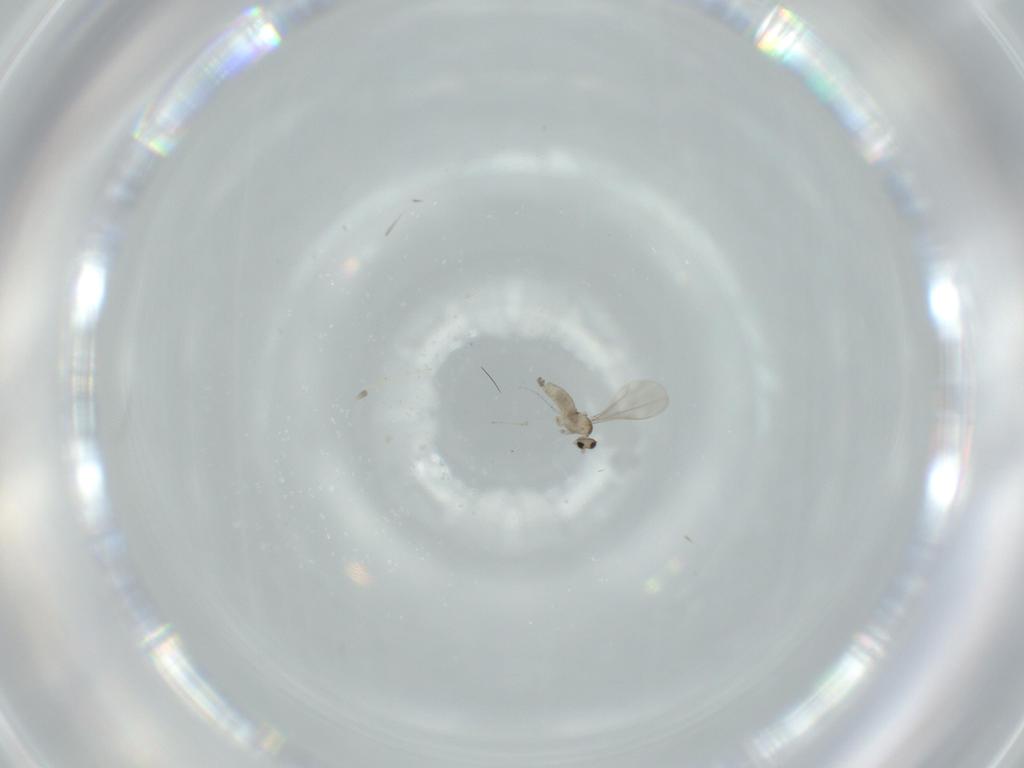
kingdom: Animalia
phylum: Arthropoda
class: Insecta
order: Diptera
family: Cecidomyiidae
